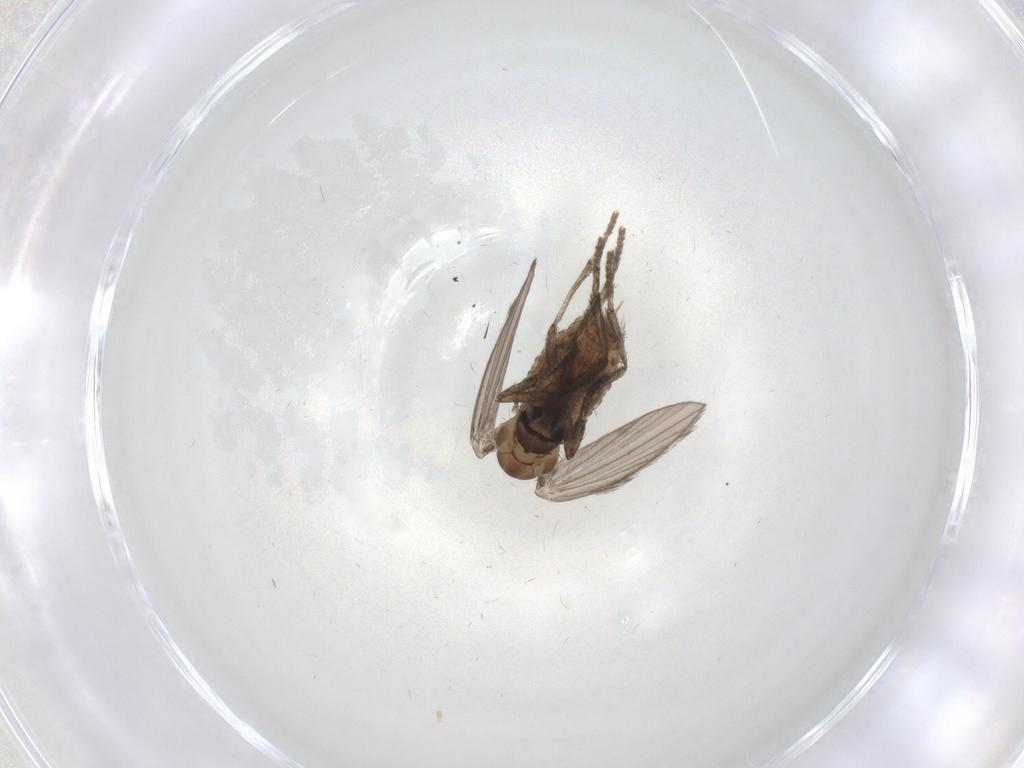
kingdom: Animalia
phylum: Arthropoda
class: Insecta
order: Diptera
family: Psychodidae
